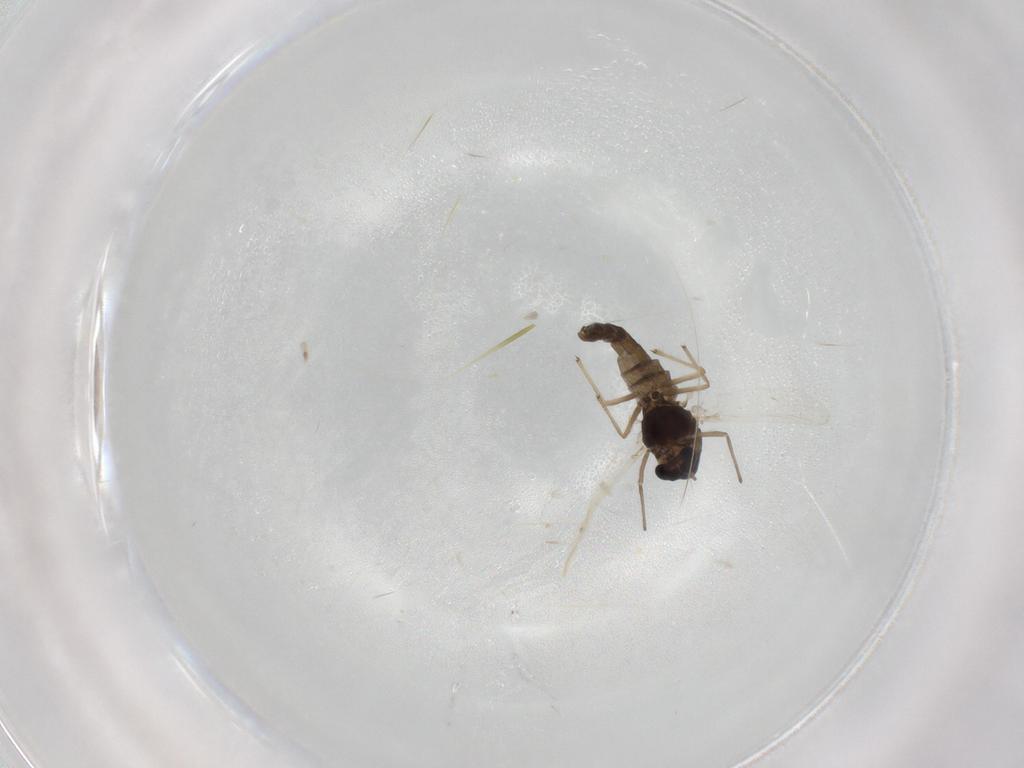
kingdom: Animalia
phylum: Arthropoda
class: Insecta
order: Diptera
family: Chironomidae
